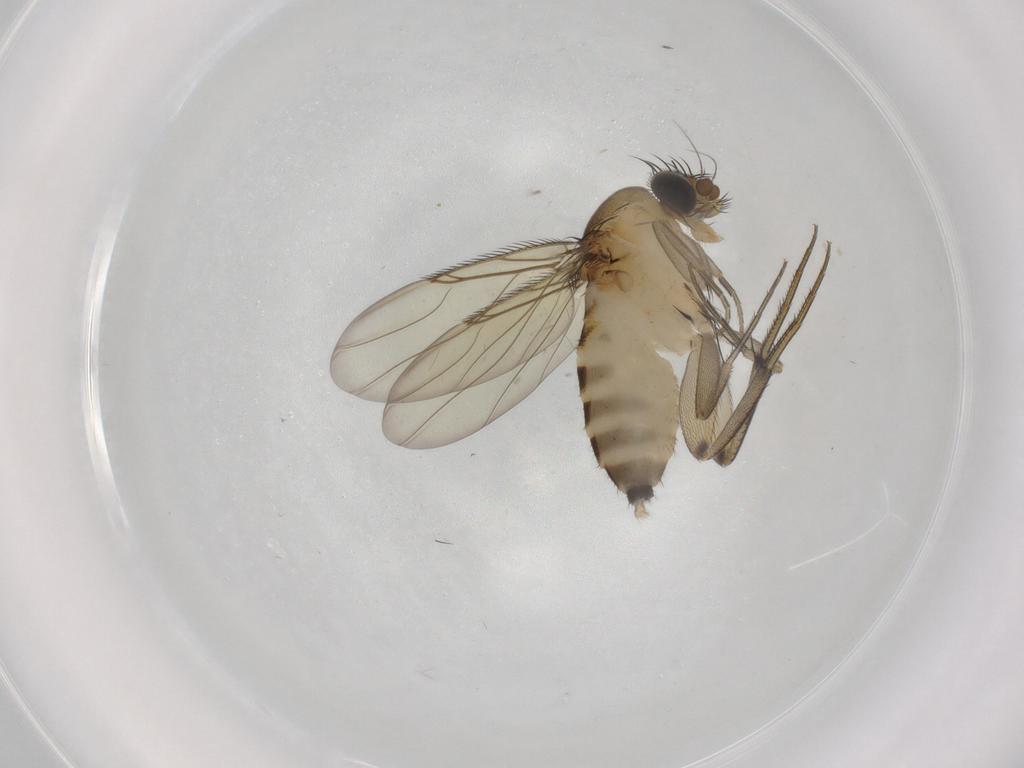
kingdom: Animalia
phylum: Arthropoda
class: Insecta
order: Diptera
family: Phoridae
